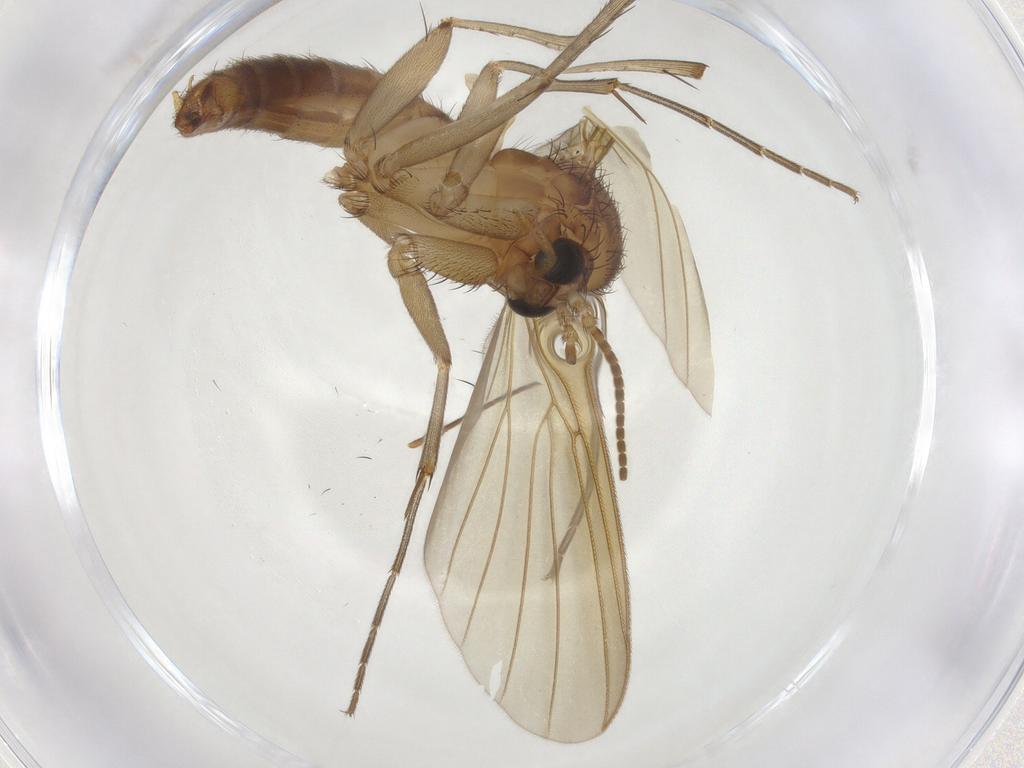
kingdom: Animalia
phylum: Arthropoda
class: Insecta
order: Diptera
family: Mycetophilidae
